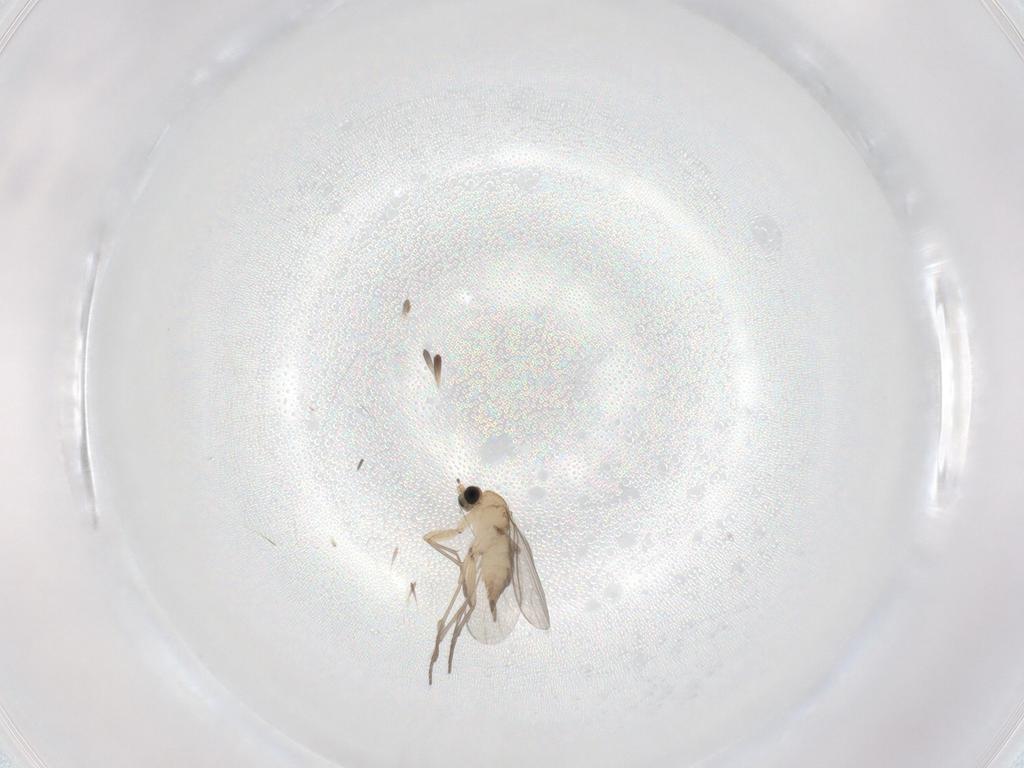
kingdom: Animalia
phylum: Arthropoda
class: Insecta
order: Diptera
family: Sciaridae
